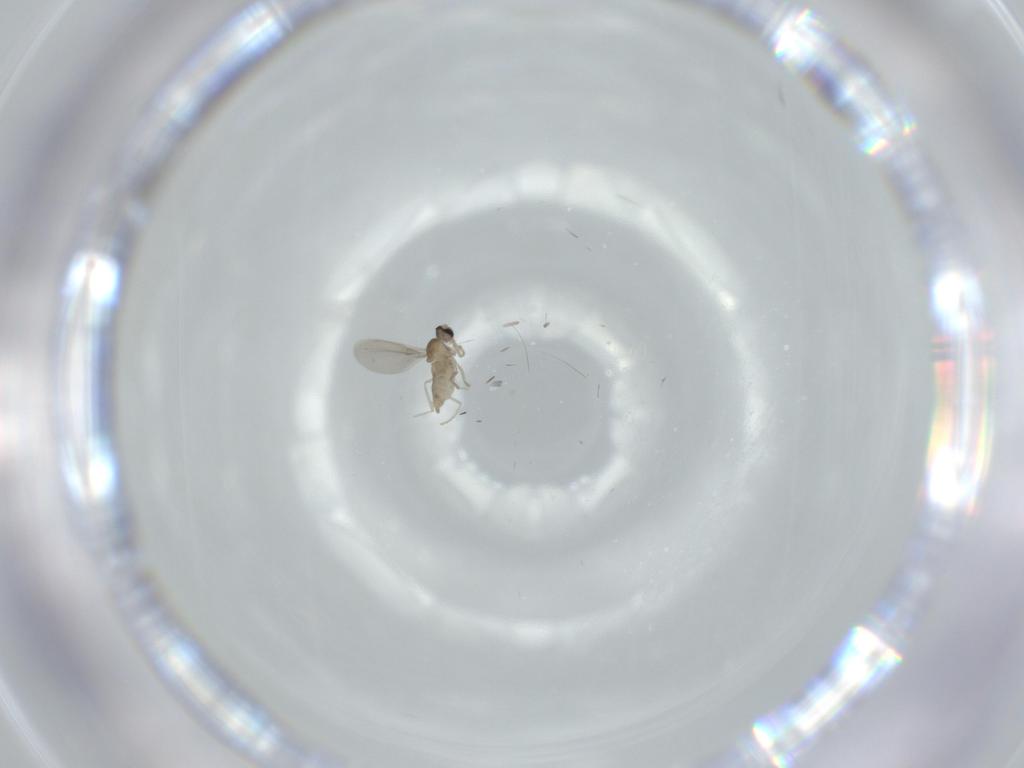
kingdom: Animalia
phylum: Arthropoda
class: Insecta
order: Diptera
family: Cecidomyiidae
